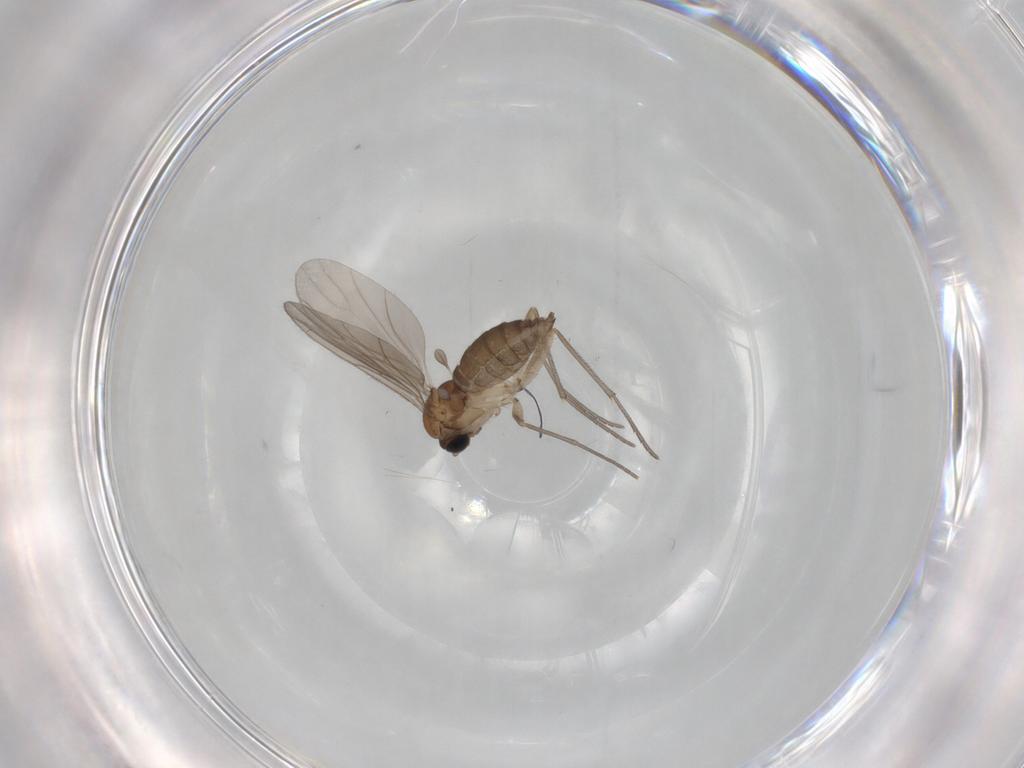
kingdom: Animalia
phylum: Arthropoda
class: Insecta
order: Diptera
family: Sciaridae
